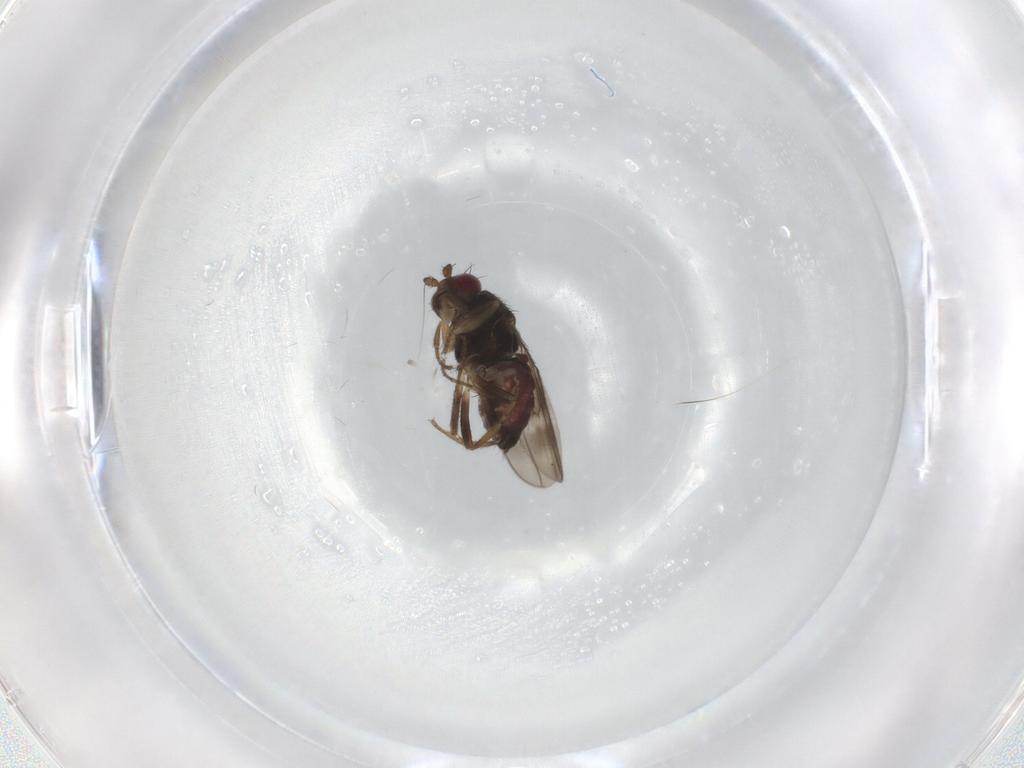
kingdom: Animalia
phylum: Arthropoda
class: Insecta
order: Diptera
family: Sphaeroceridae
